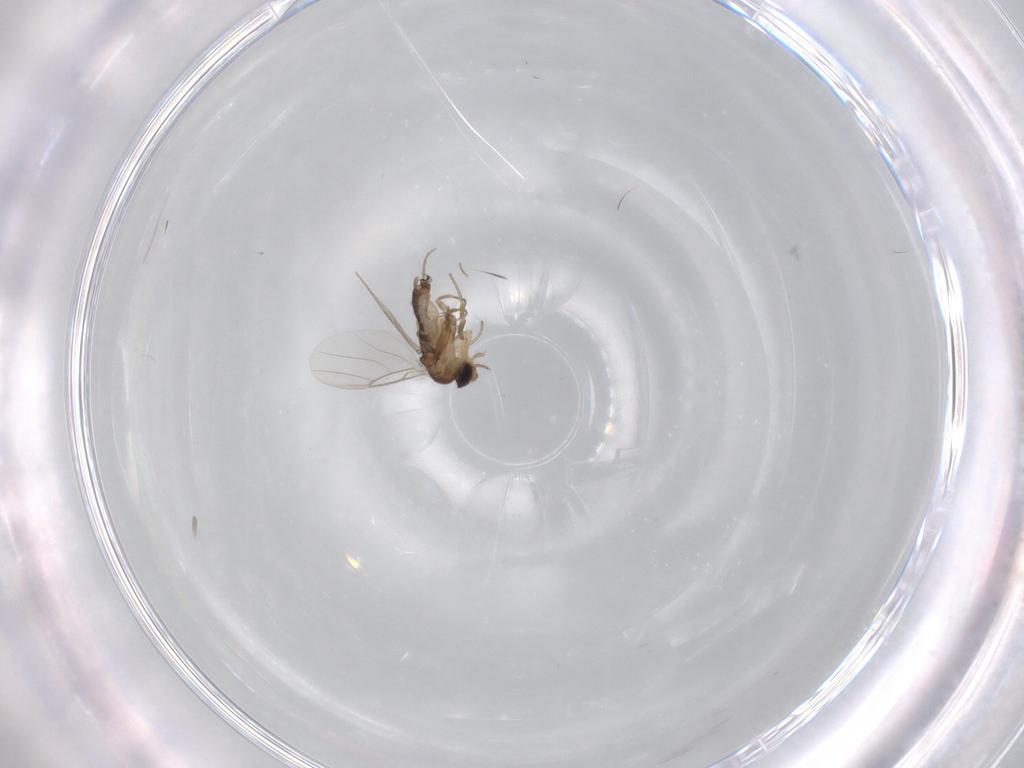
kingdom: Animalia
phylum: Arthropoda
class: Insecta
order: Diptera
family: Phoridae
